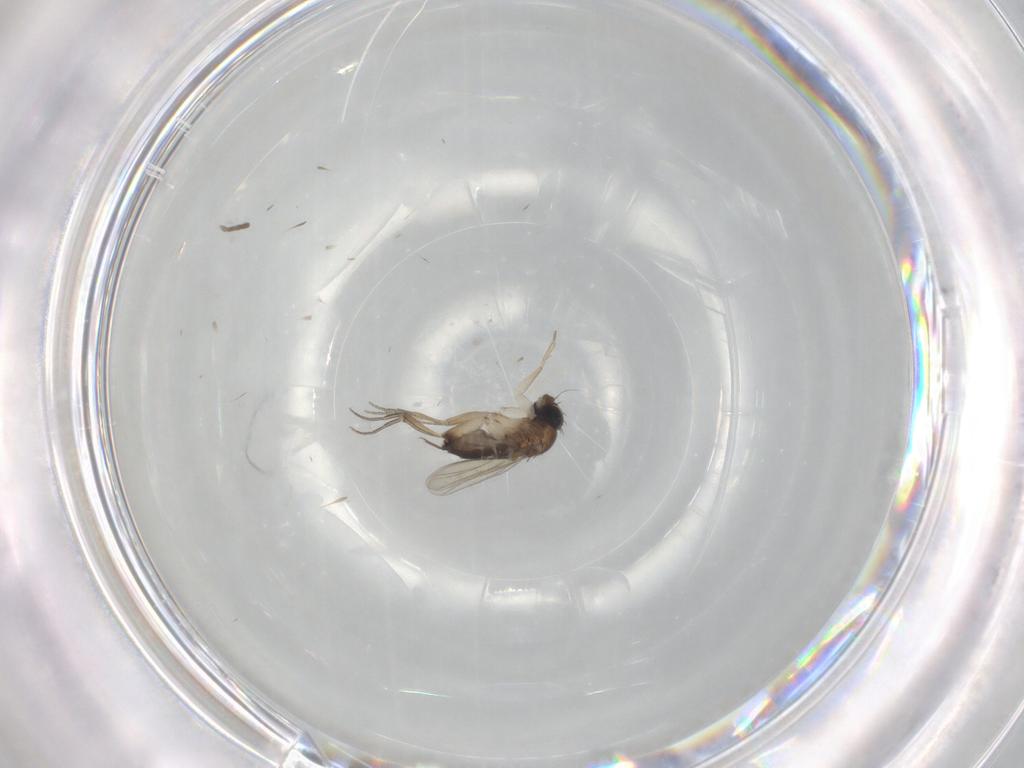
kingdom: Animalia
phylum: Arthropoda
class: Insecta
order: Diptera
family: Phoridae
